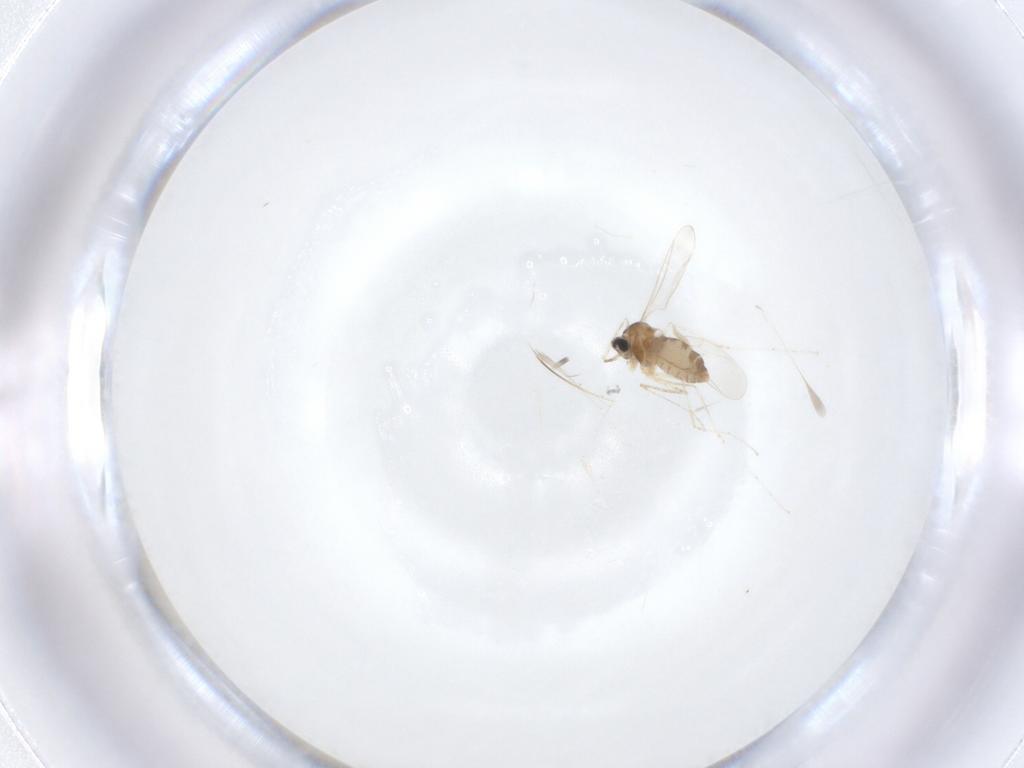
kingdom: Animalia
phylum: Arthropoda
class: Insecta
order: Diptera
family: Cecidomyiidae
